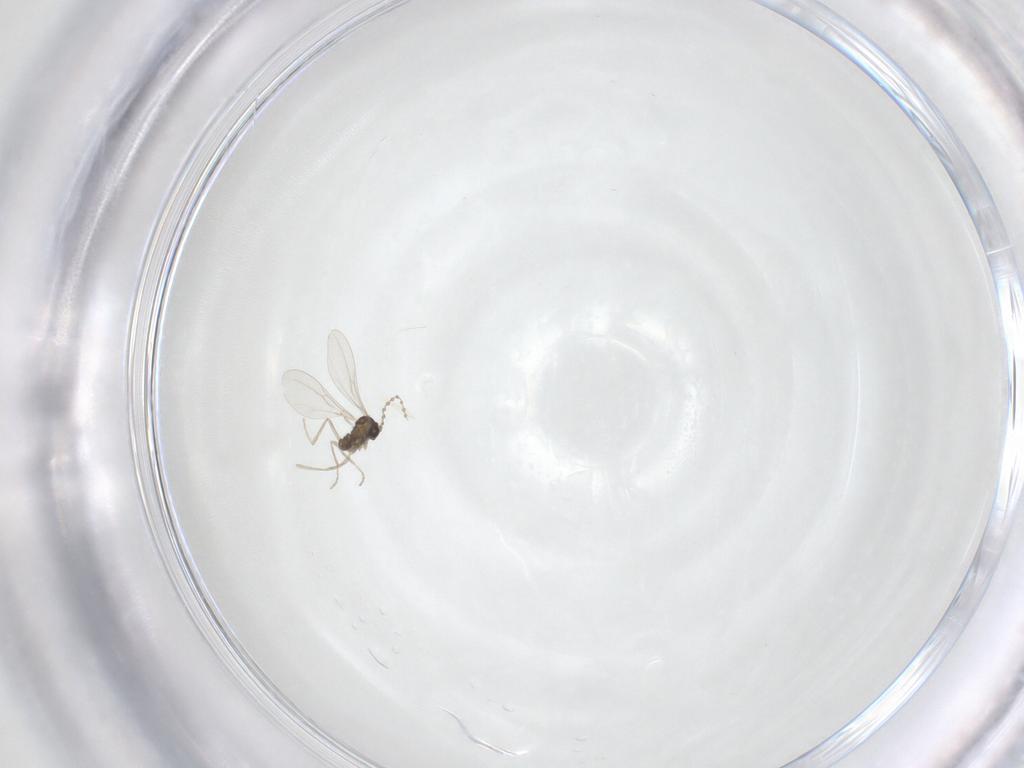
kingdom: Animalia
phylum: Arthropoda
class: Insecta
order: Diptera
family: Cecidomyiidae
